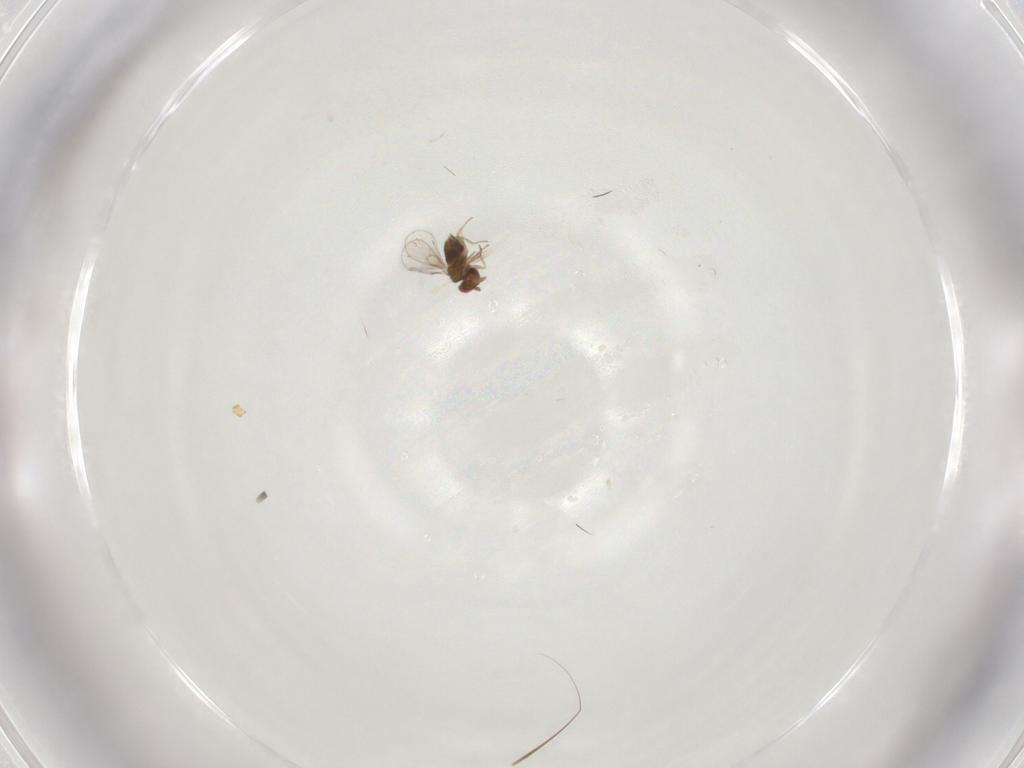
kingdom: Animalia
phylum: Arthropoda
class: Insecta
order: Hymenoptera
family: Trichogrammatidae
